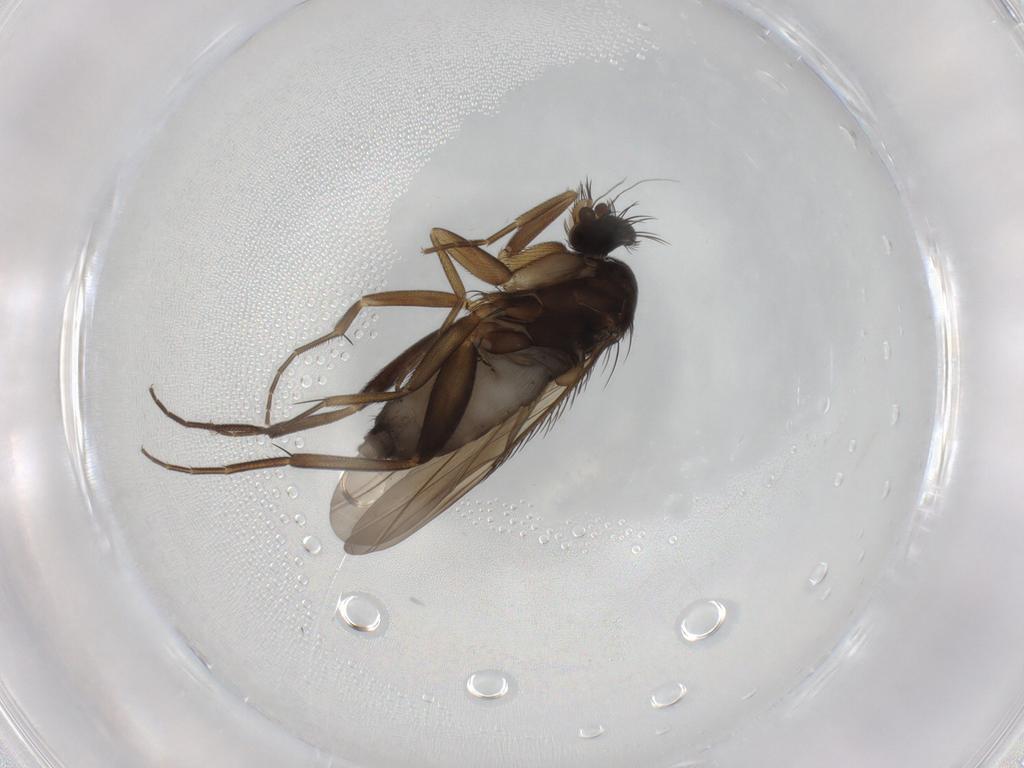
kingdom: Animalia
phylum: Arthropoda
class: Insecta
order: Diptera
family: Phoridae
